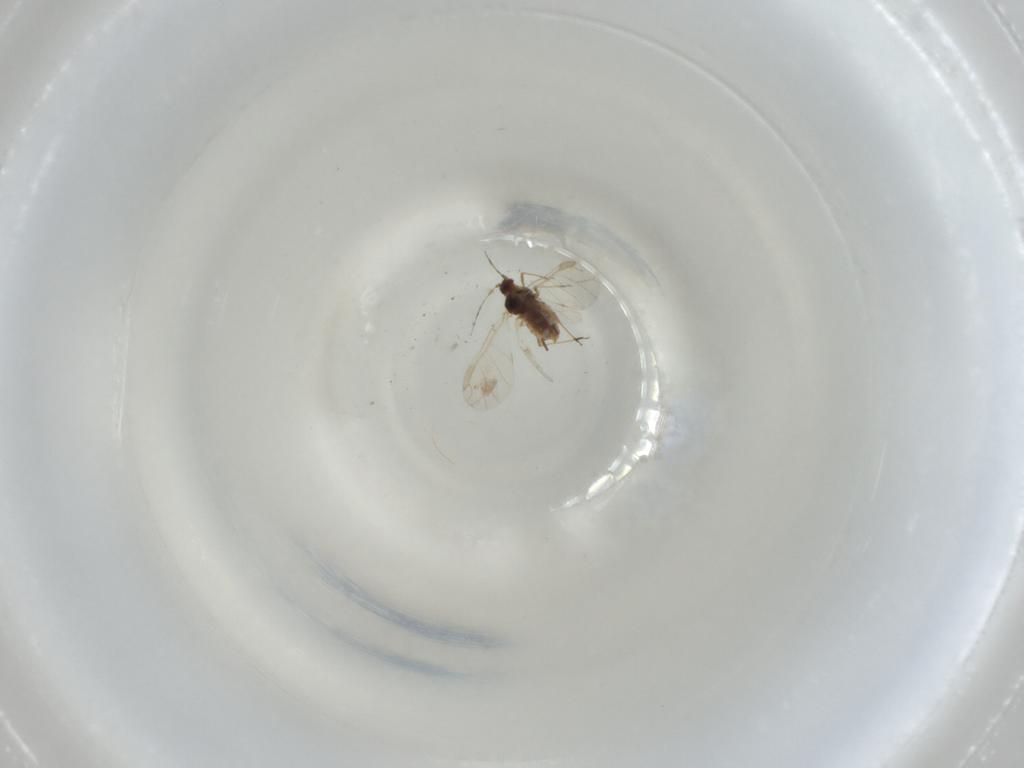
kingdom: Animalia
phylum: Arthropoda
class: Insecta
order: Hemiptera
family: Aphididae
